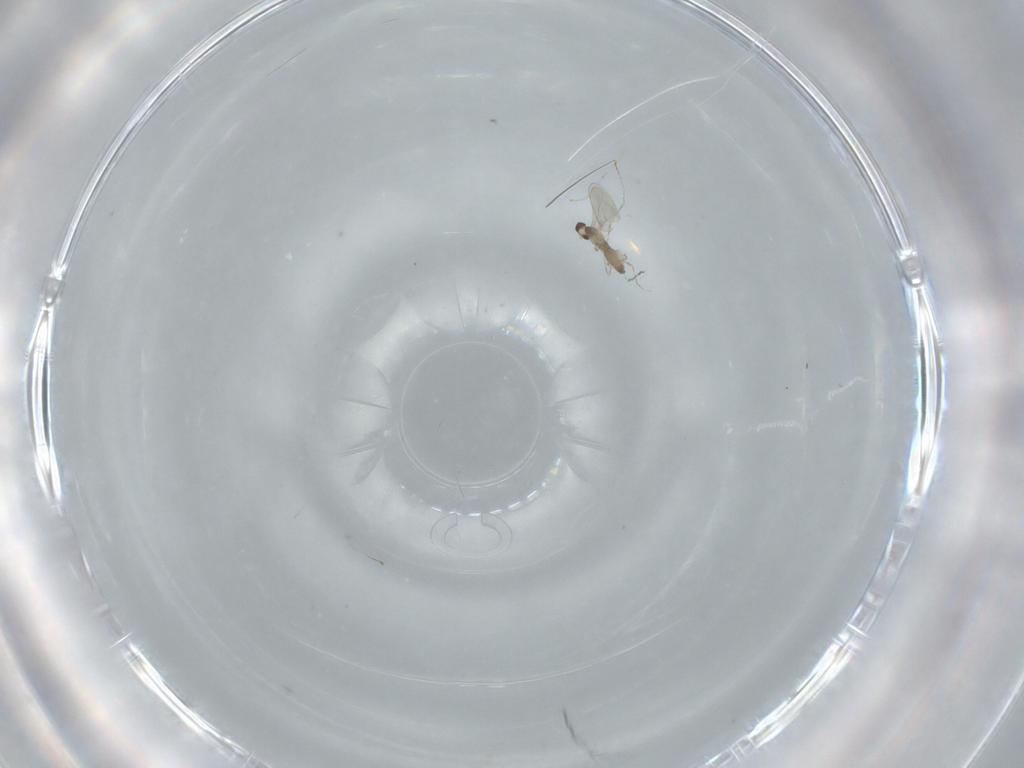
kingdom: Animalia
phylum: Arthropoda
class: Insecta
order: Diptera
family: Cecidomyiidae
